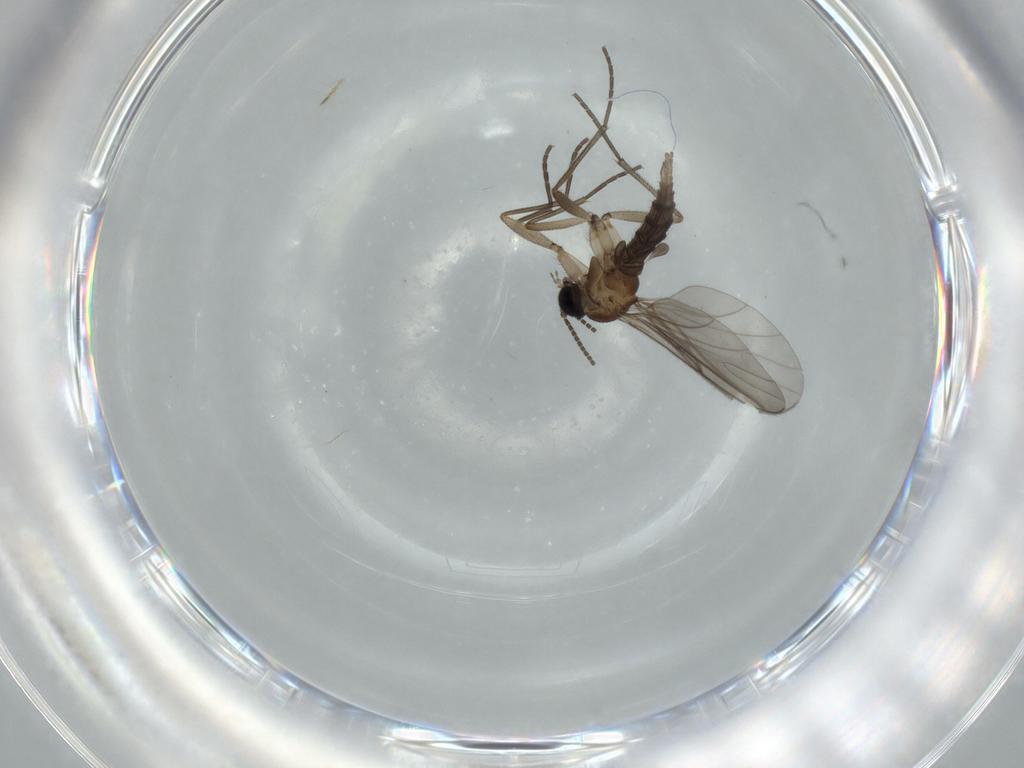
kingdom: Animalia
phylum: Arthropoda
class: Insecta
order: Diptera
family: Sciaridae
